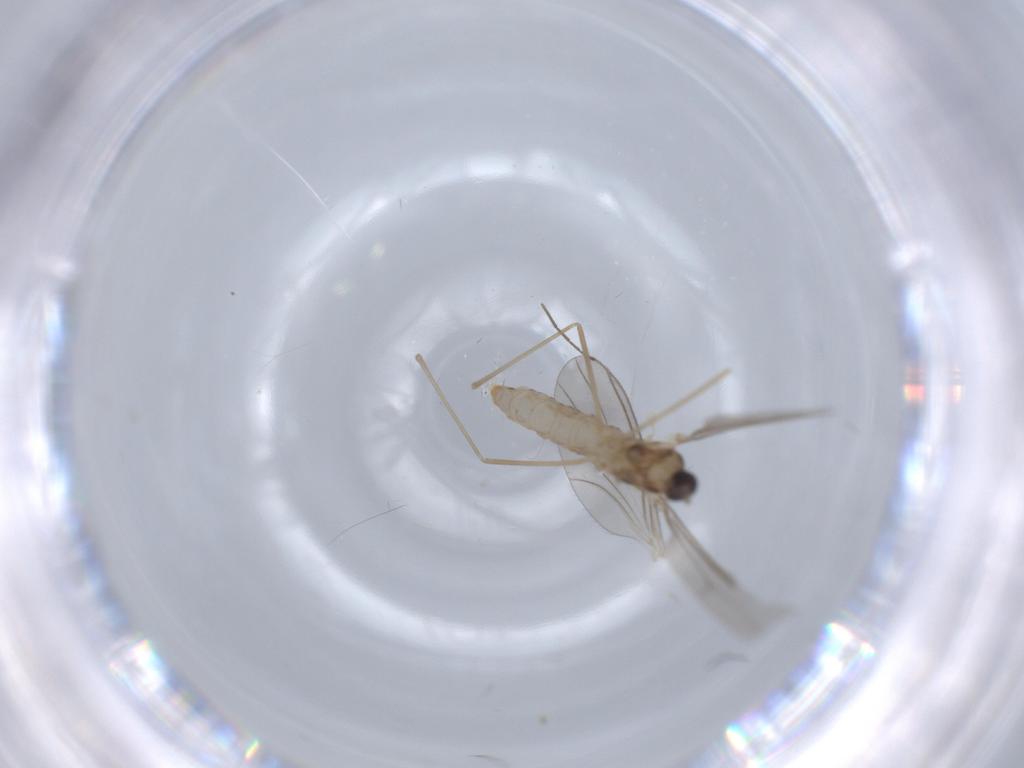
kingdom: Animalia
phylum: Arthropoda
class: Insecta
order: Diptera
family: Cecidomyiidae
